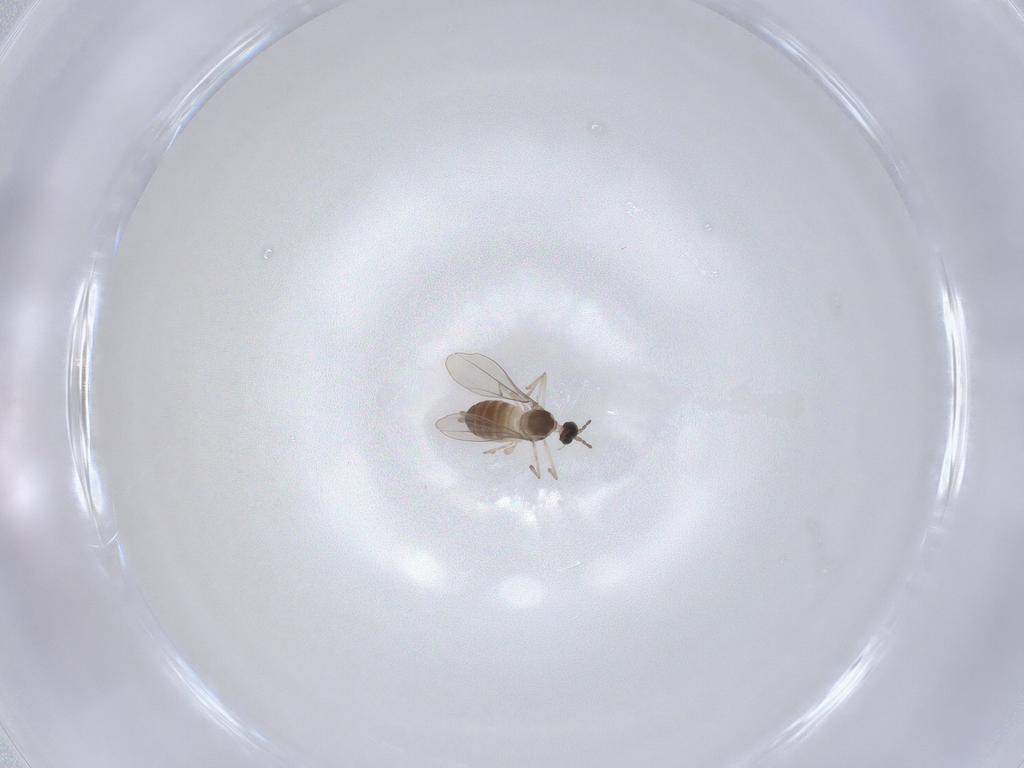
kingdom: Animalia
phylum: Arthropoda
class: Insecta
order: Diptera
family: Cecidomyiidae
